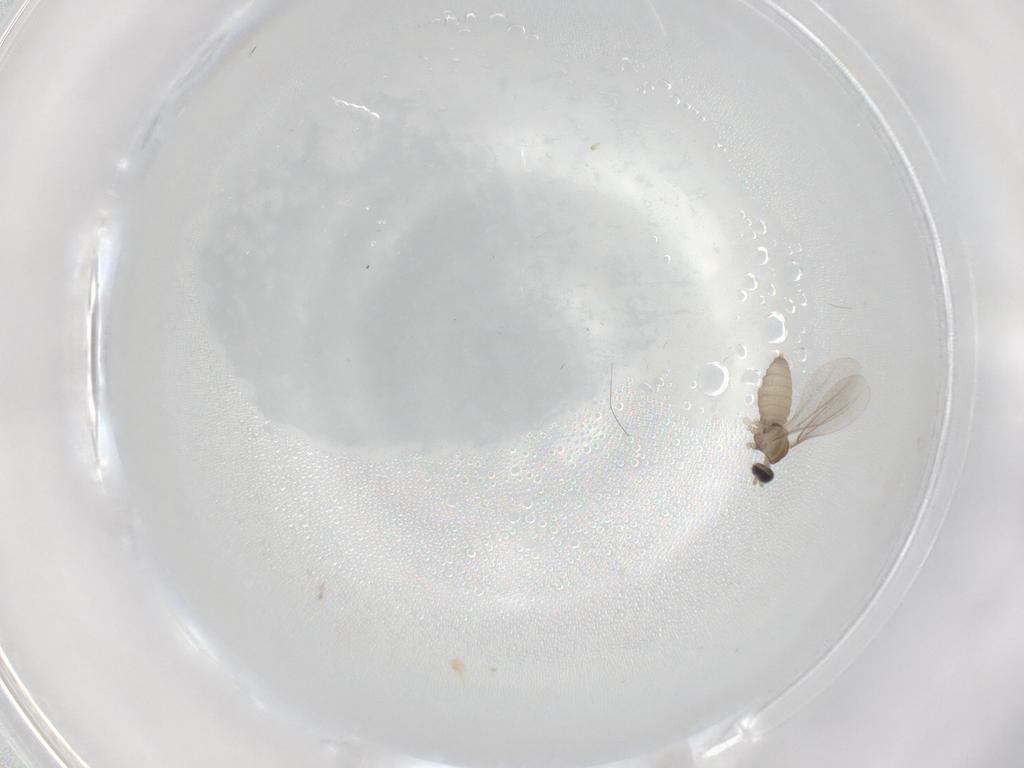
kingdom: Animalia
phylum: Arthropoda
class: Insecta
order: Diptera
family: Cecidomyiidae
